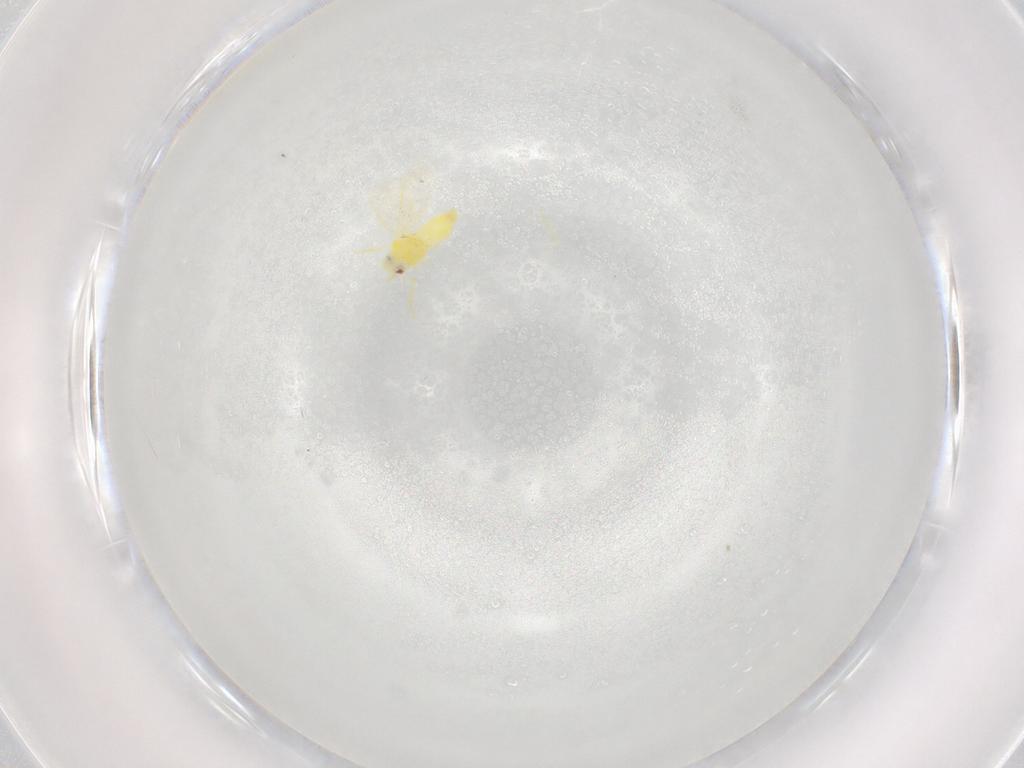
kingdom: Animalia
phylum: Arthropoda
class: Insecta
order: Hemiptera
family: Aleyrodidae
